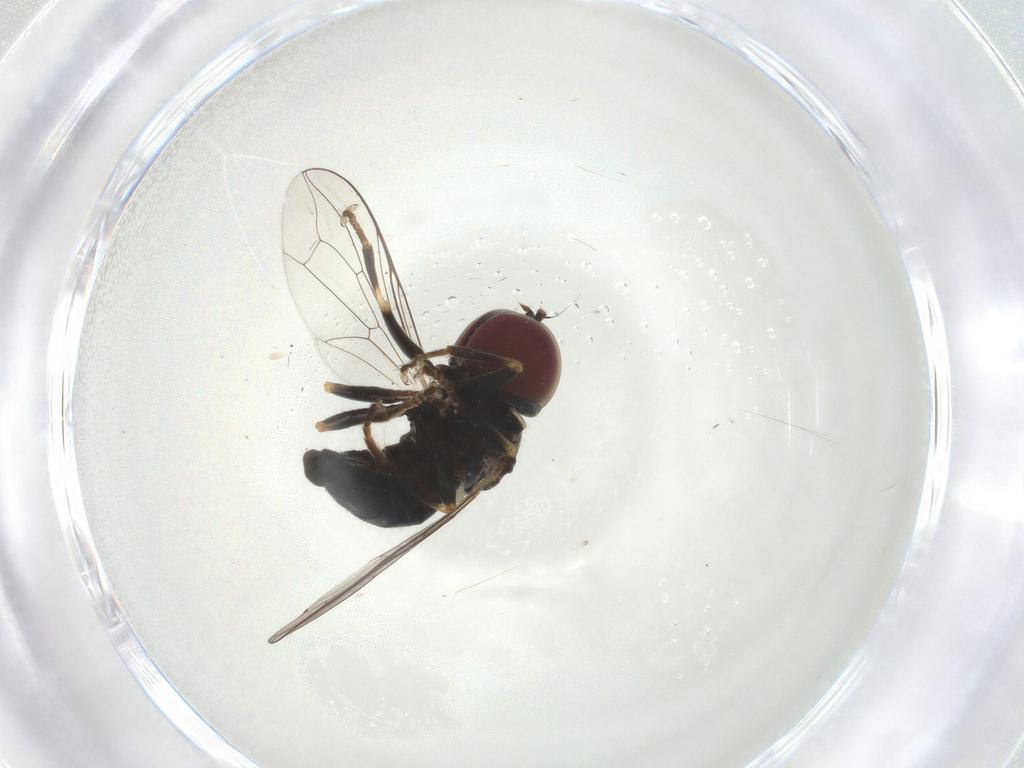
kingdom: Animalia
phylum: Arthropoda
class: Insecta
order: Diptera
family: Pipunculidae
